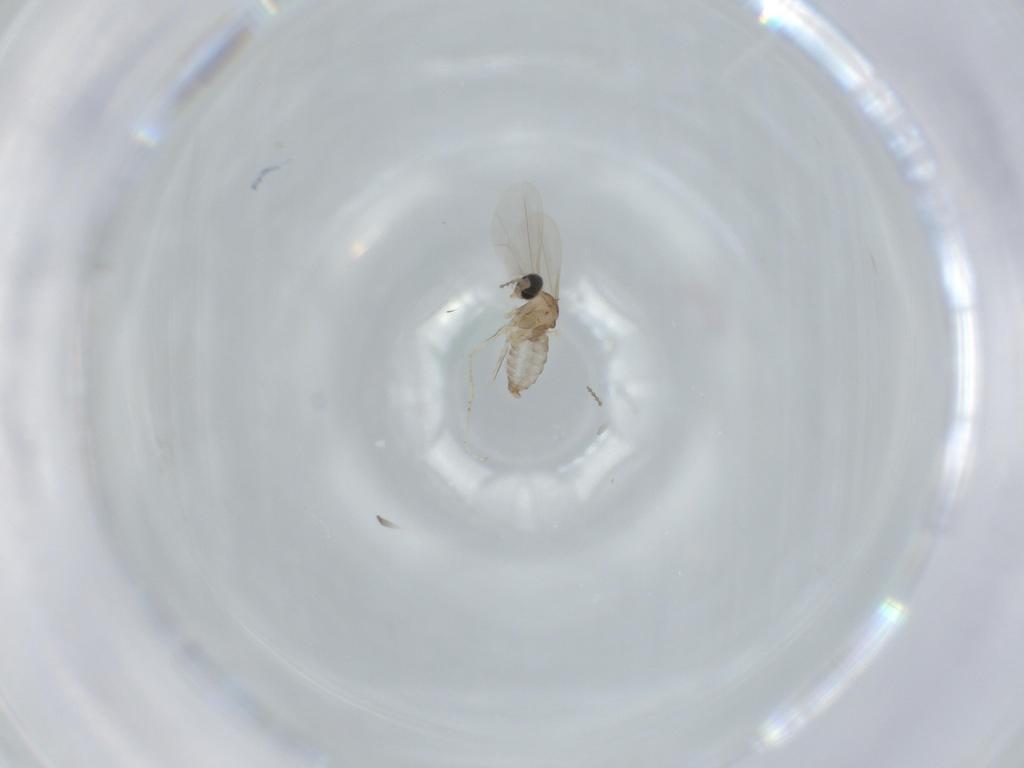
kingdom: Animalia
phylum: Arthropoda
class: Insecta
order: Diptera
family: Cecidomyiidae
